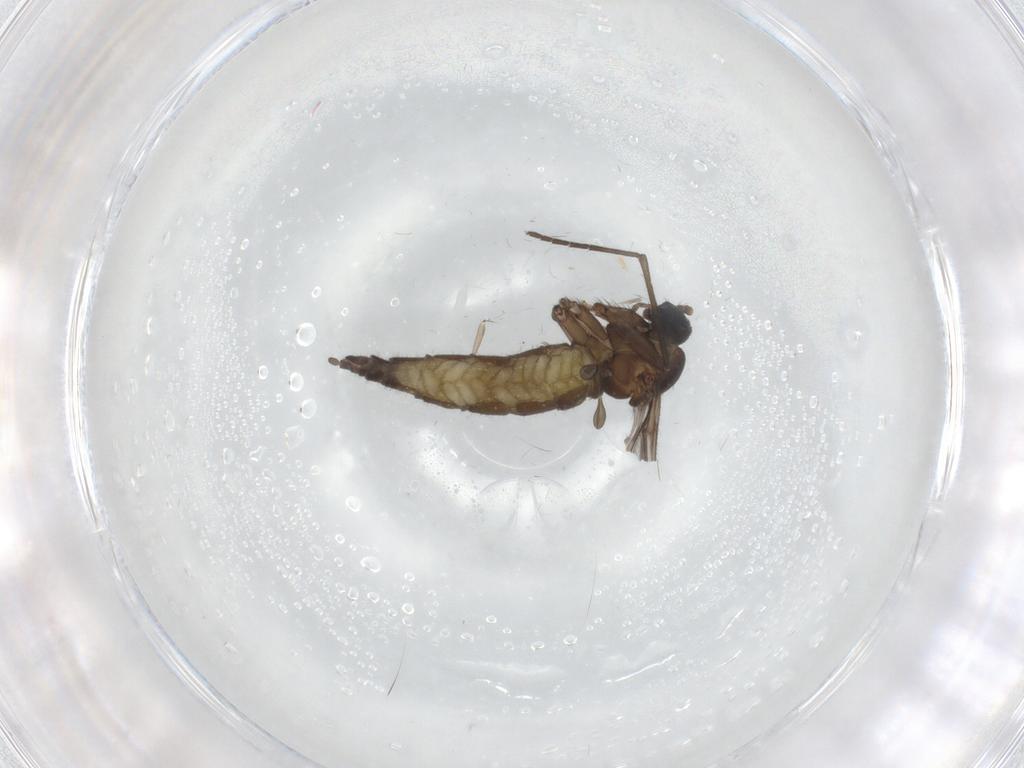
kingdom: Animalia
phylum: Arthropoda
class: Insecta
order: Diptera
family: Sciaridae
